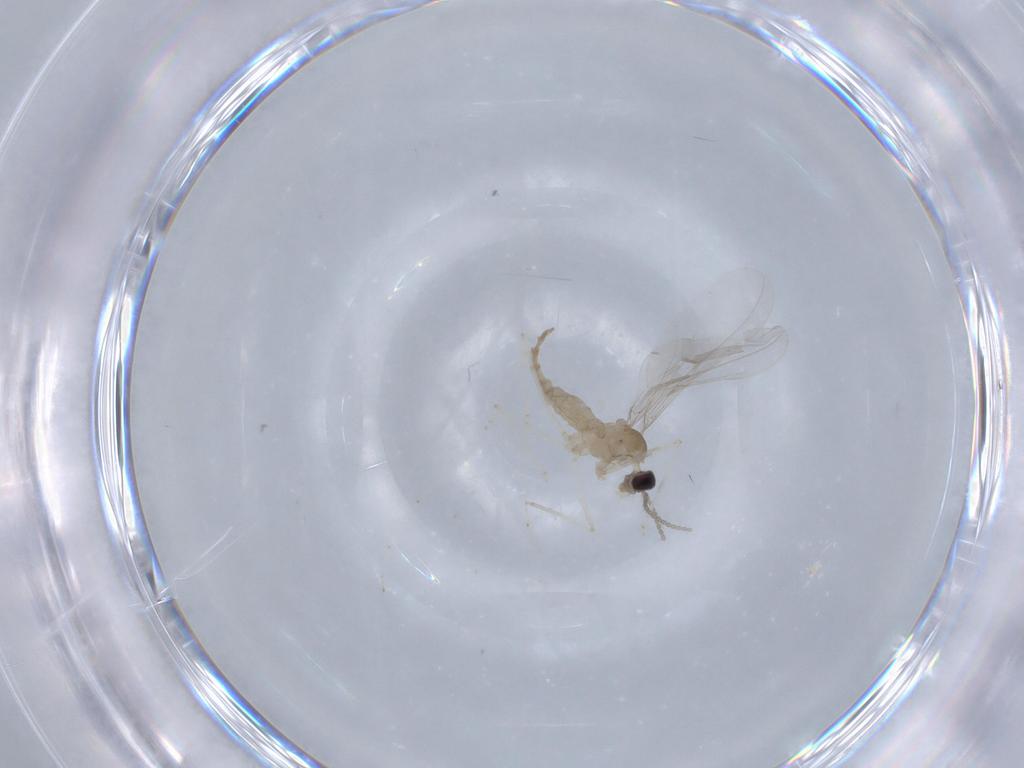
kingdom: Animalia
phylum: Arthropoda
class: Insecta
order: Diptera
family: Cecidomyiidae
